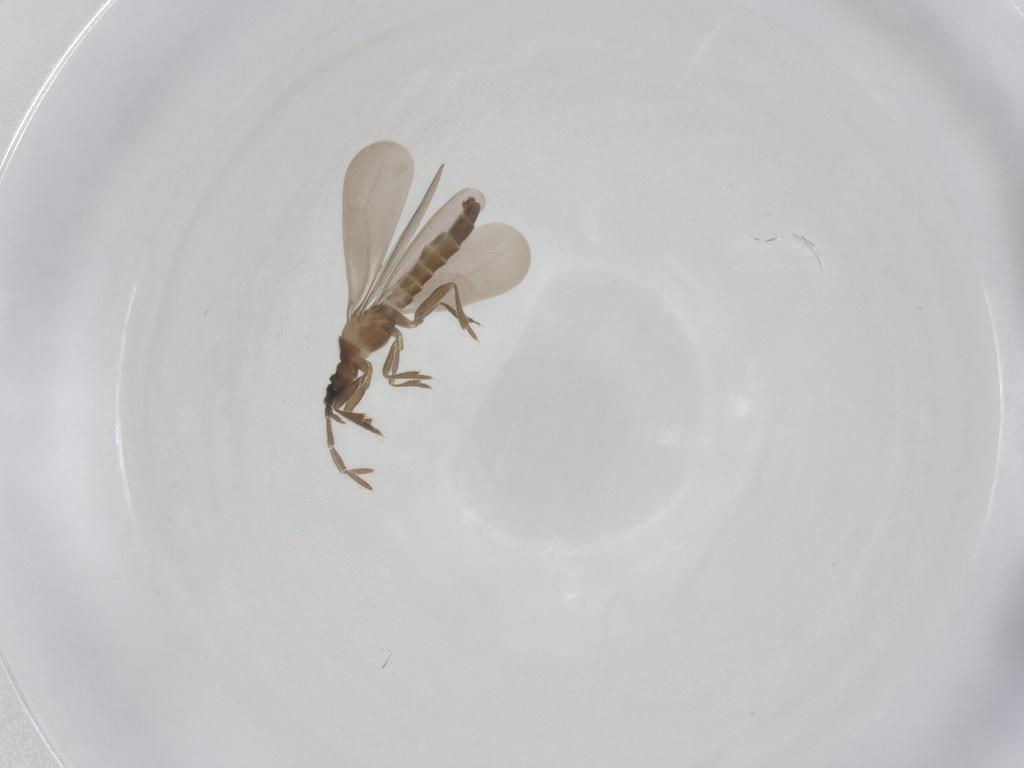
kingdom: Animalia
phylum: Arthropoda
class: Insecta
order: Hemiptera
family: Enicocephalidae
